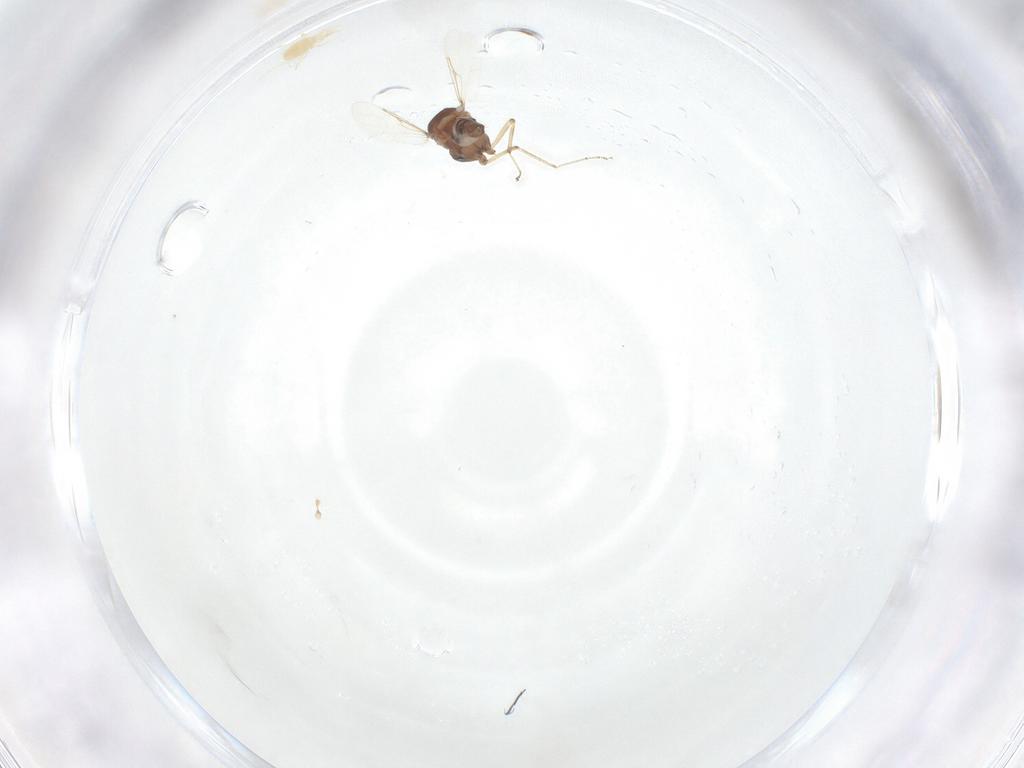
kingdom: Animalia
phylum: Arthropoda
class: Insecta
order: Diptera
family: Ceratopogonidae
